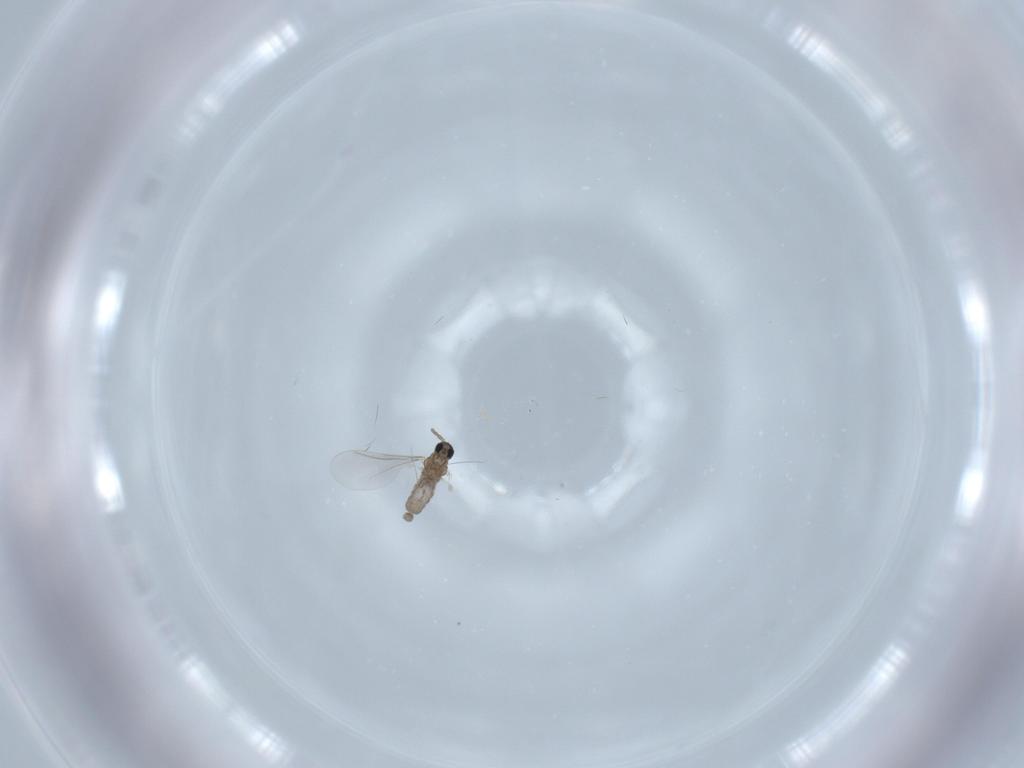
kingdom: Animalia
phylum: Arthropoda
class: Insecta
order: Diptera
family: Cecidomyiidae
